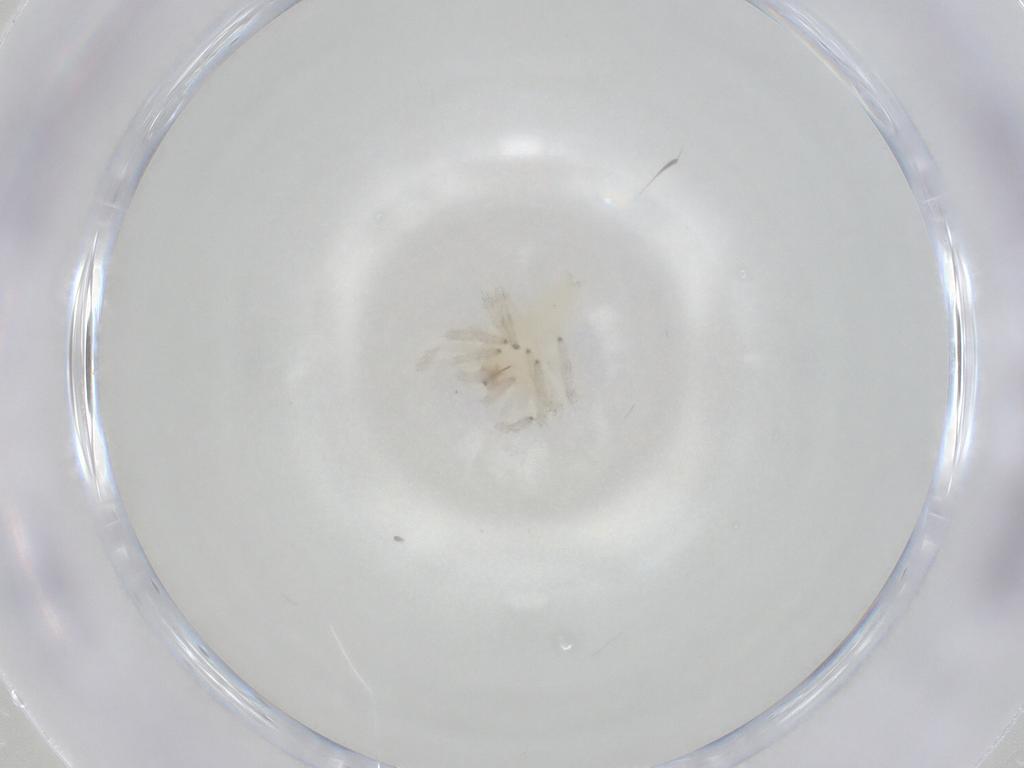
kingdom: Animalia
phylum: Arthropoda
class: Arachnida
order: Araneae
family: Anyphaenidae
